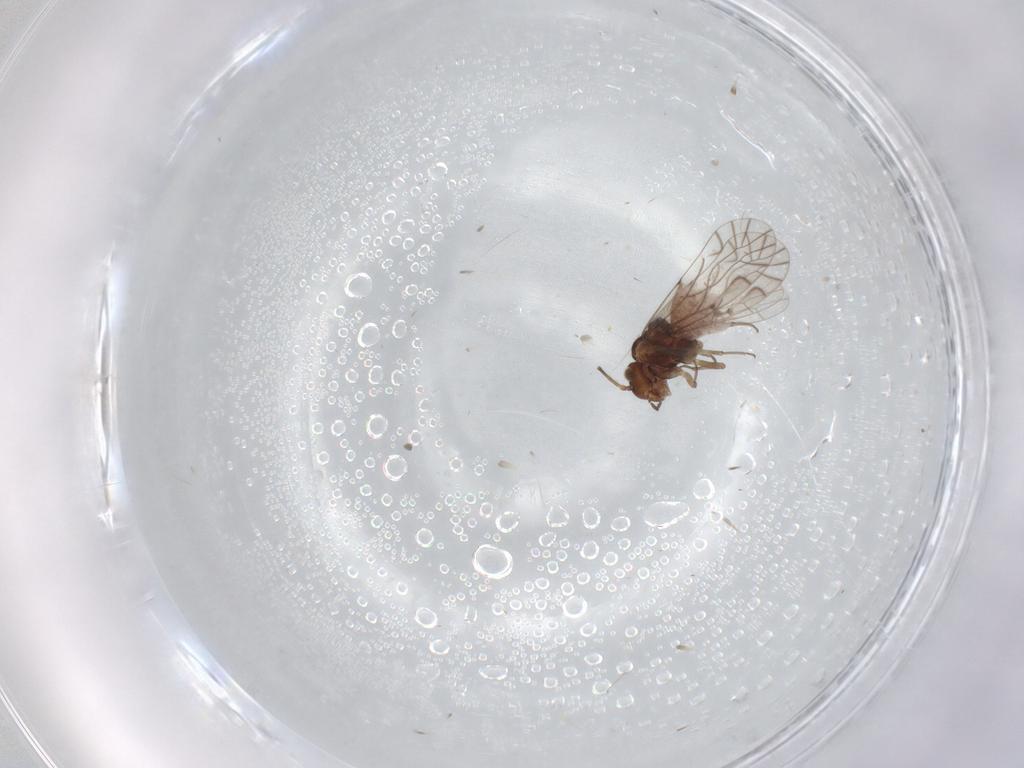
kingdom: Animalia
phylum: Arthropoda
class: Insecta
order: Psocodea
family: Lachesillidae
